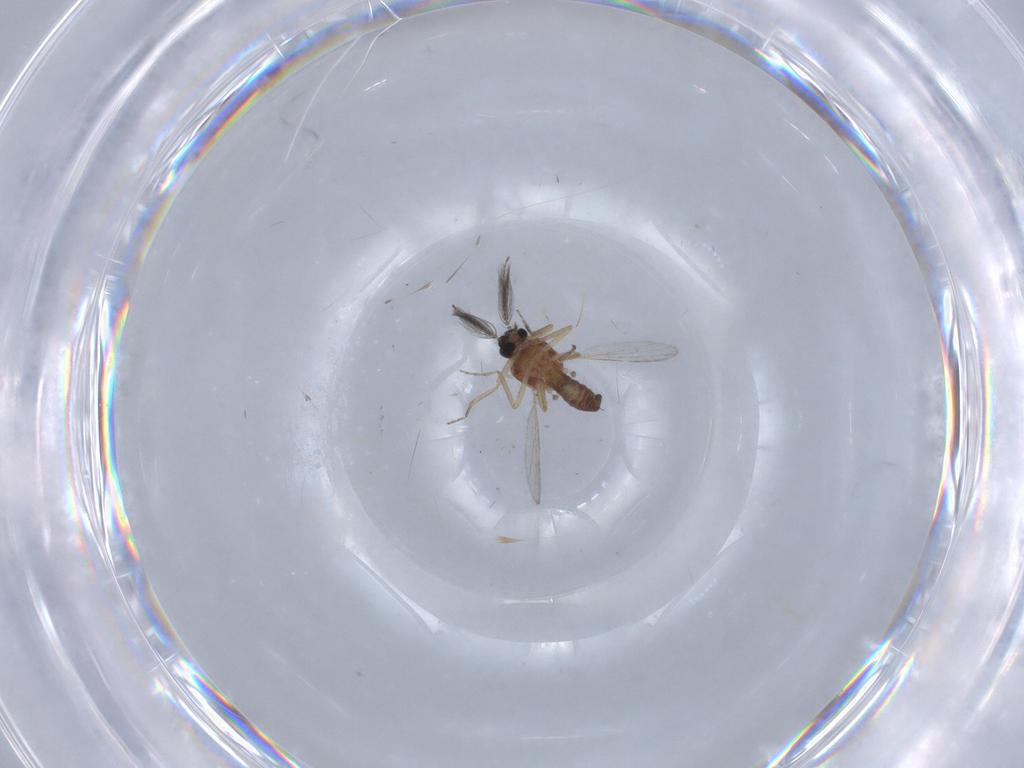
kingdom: Animalia
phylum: Arthropoda
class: Insecta
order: Diptera
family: Ceratopogonidae
